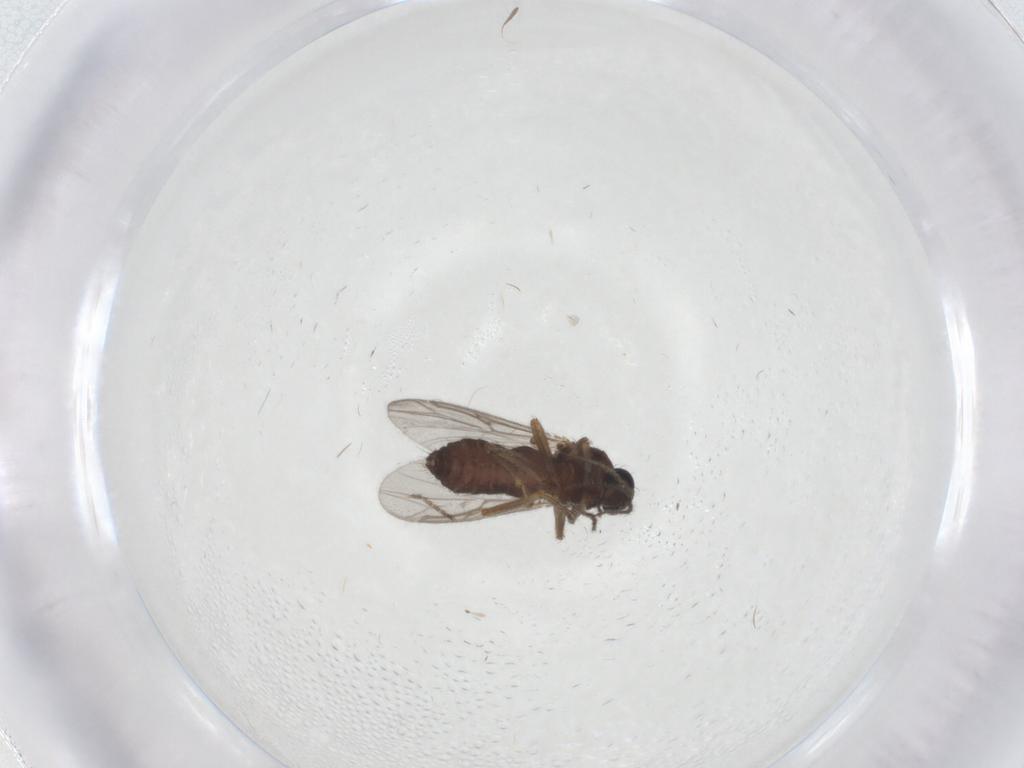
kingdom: Animalia
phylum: Arthropoda
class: Insecta
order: Diptera
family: Ceratopogonidae
